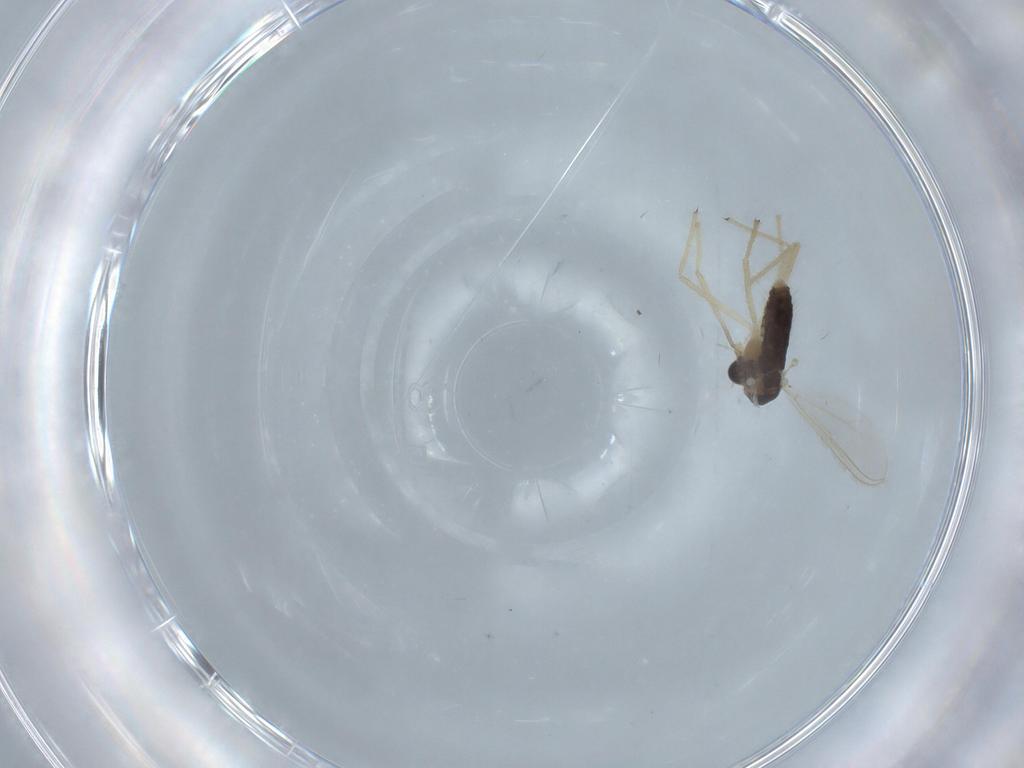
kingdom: Animalia
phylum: Arthropoda
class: Insecta
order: Diptera
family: Chironomidae
